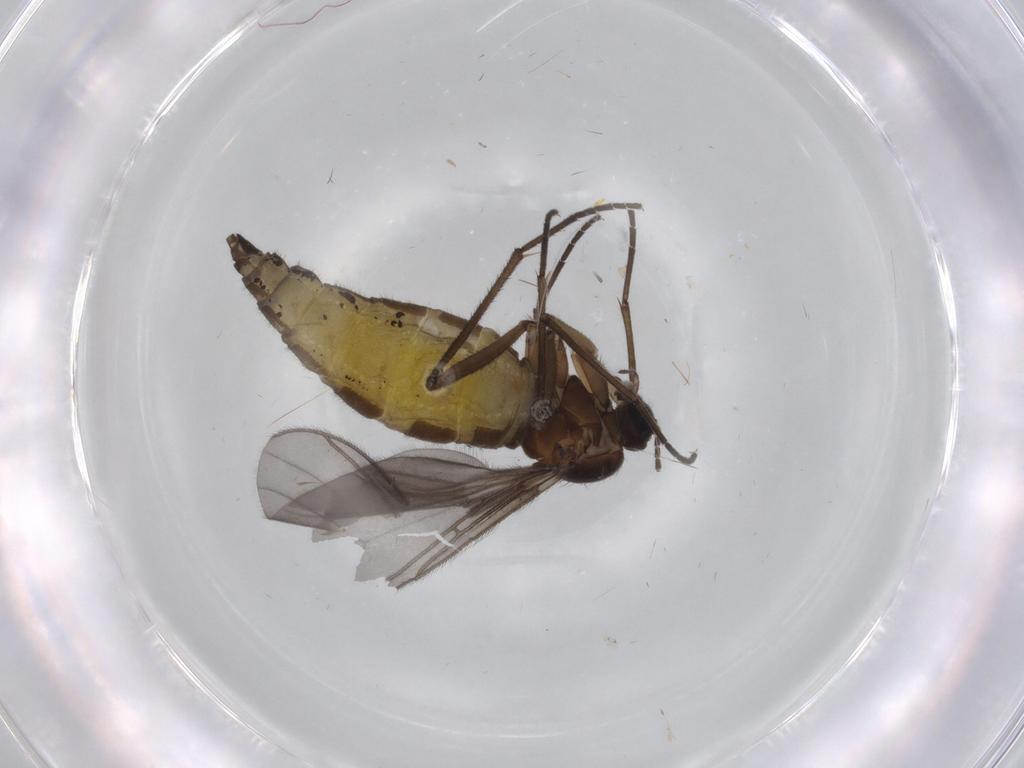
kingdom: Animalia
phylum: Arthropoda
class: Insecta
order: Diptera
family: Sciaridae
